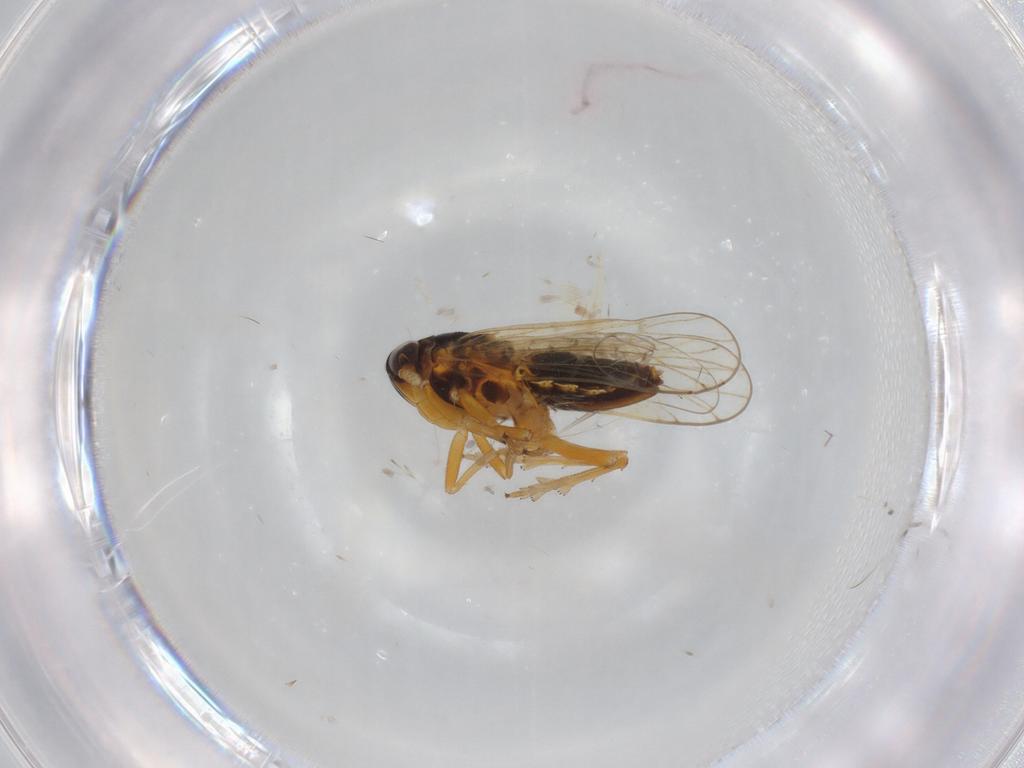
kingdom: Animalia
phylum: Arthropoda
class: Insecta
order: Hemiptera
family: Delphacidae
